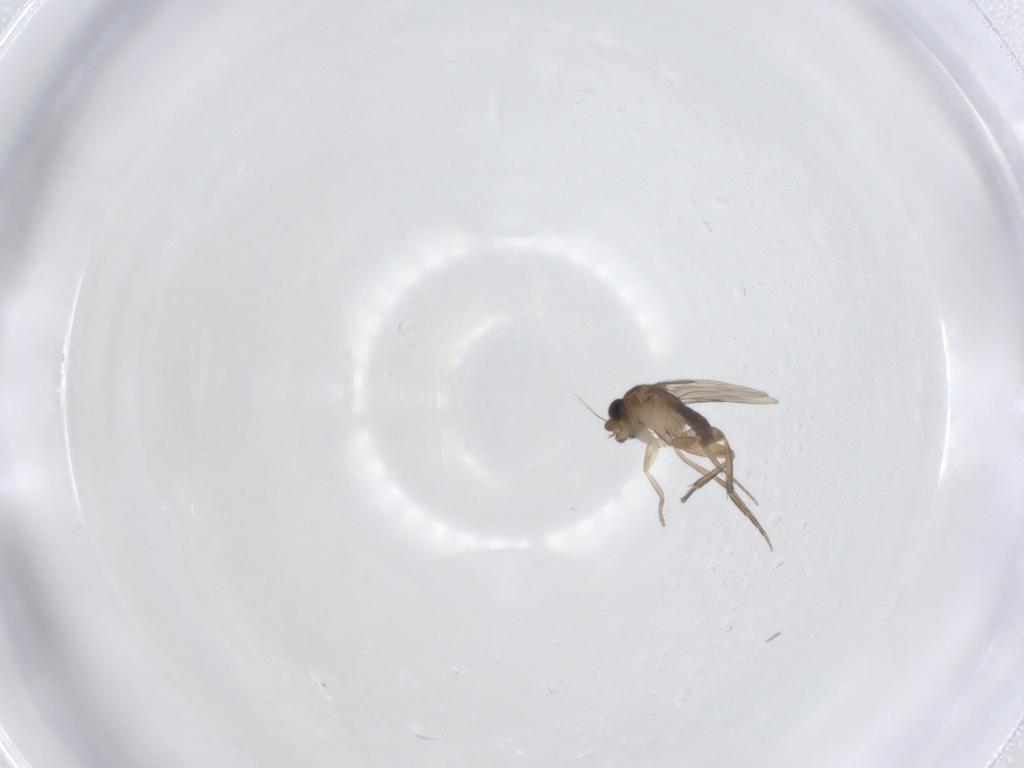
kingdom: Animalia
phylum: Arthropoda
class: Insecta
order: Diptera
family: Phoridae
